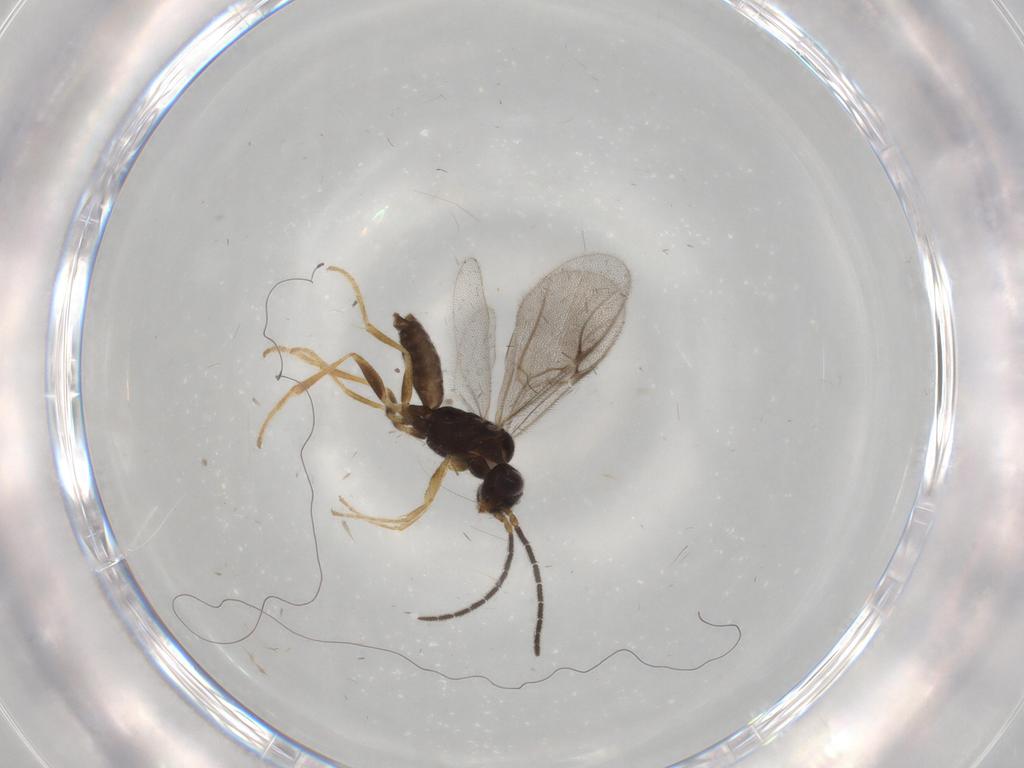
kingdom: Animalia
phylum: Arthropoda
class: Insecta
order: Hymenoptera
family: Dryinidae
